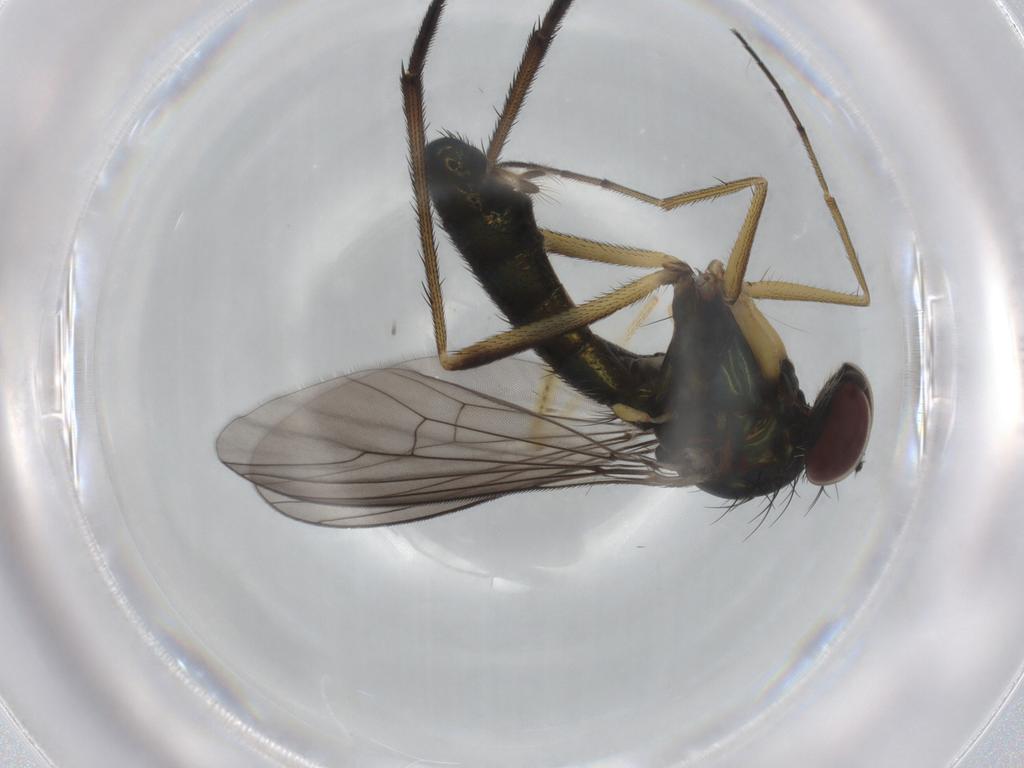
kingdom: Animalia
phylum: Arthropoda
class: Insecta
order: Diptera
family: Dolichopodidae
